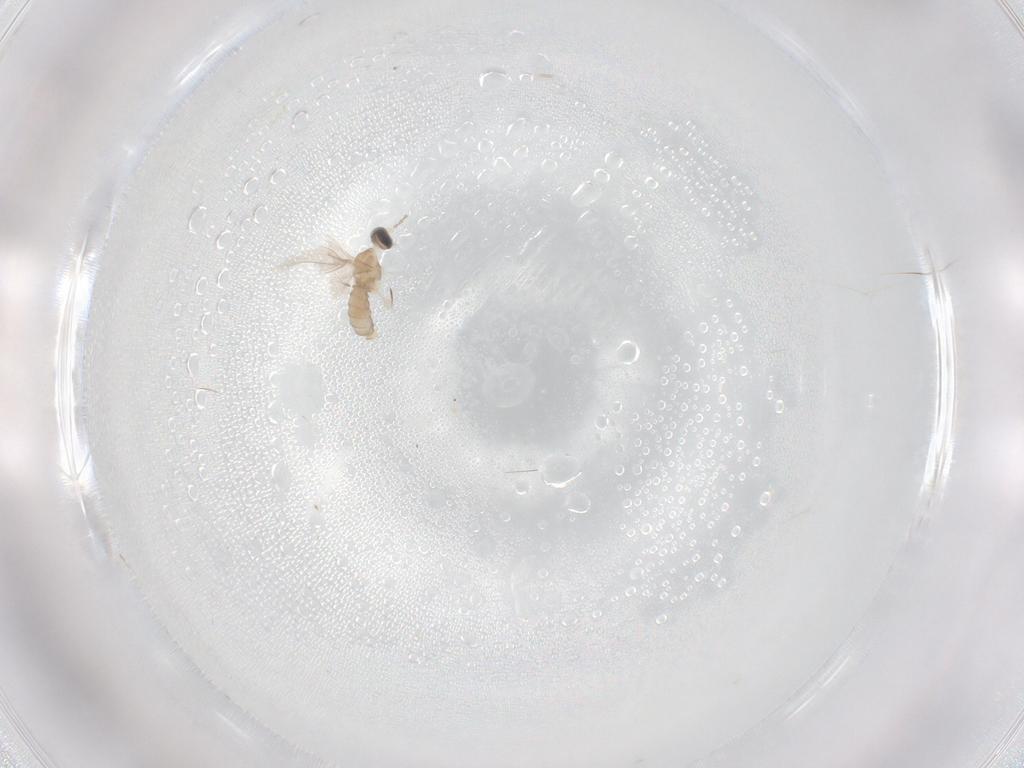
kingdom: Animalia
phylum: Arthropoda
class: Insecta
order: Diptera
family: Cecidomyiidae
